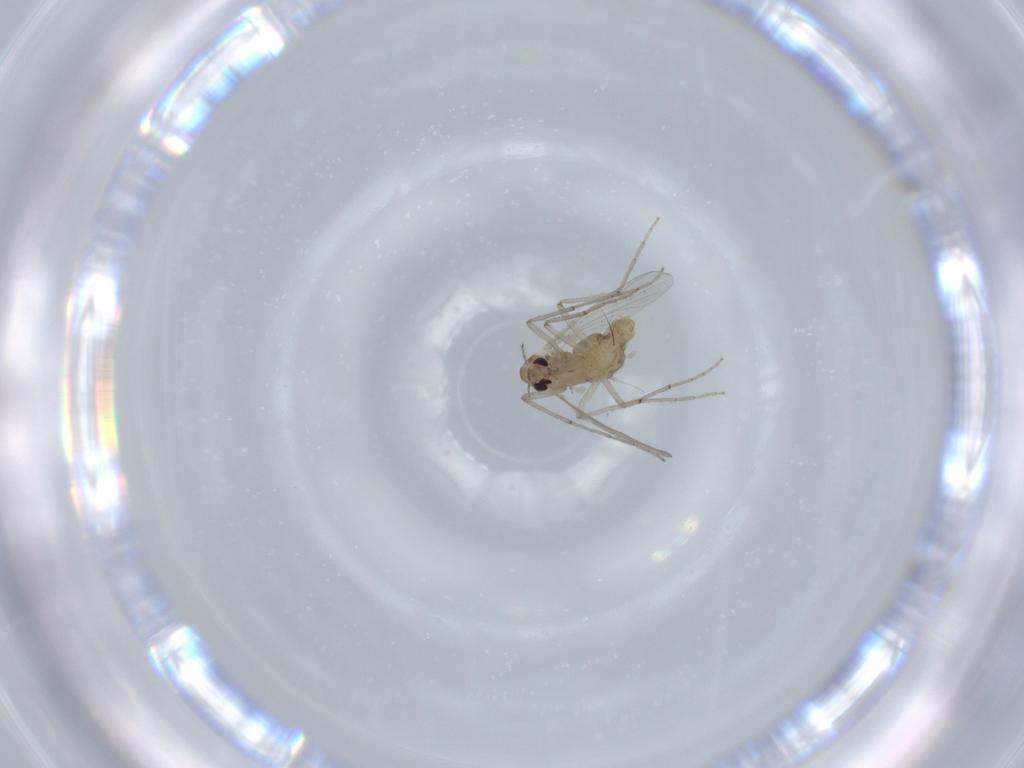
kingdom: Animalia
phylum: Arthropoda
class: Insecta
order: Diptera
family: Chironomidae
